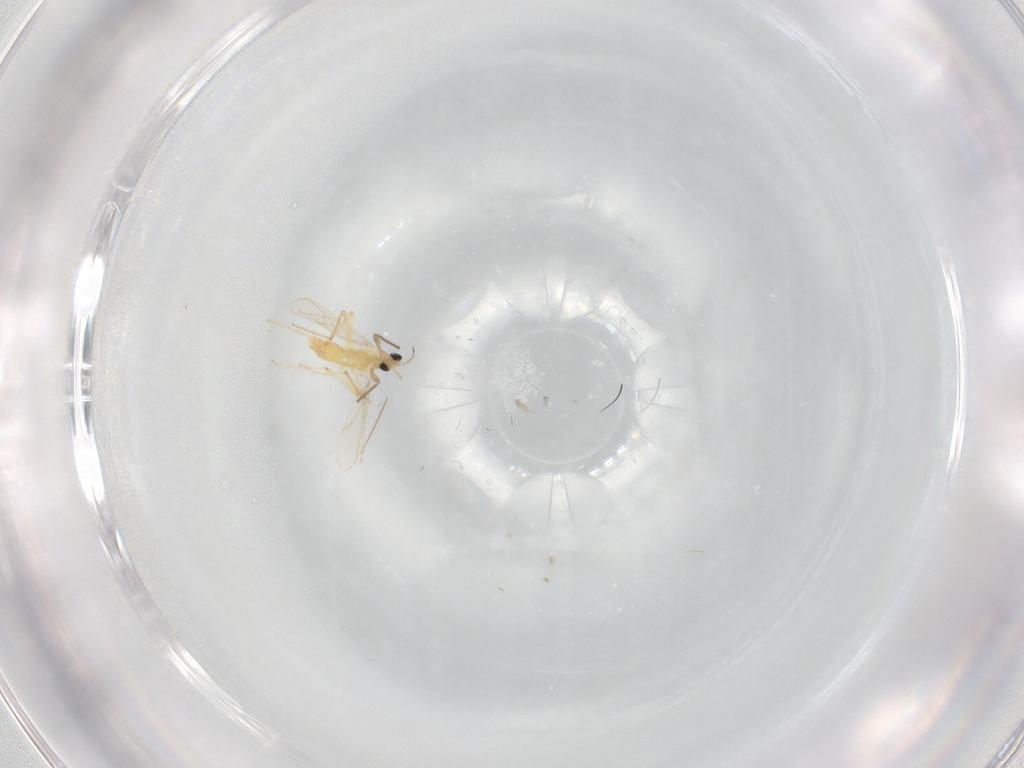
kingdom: Animalia
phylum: Arthropoda
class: Insecta
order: Diptera
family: Chironomidae
